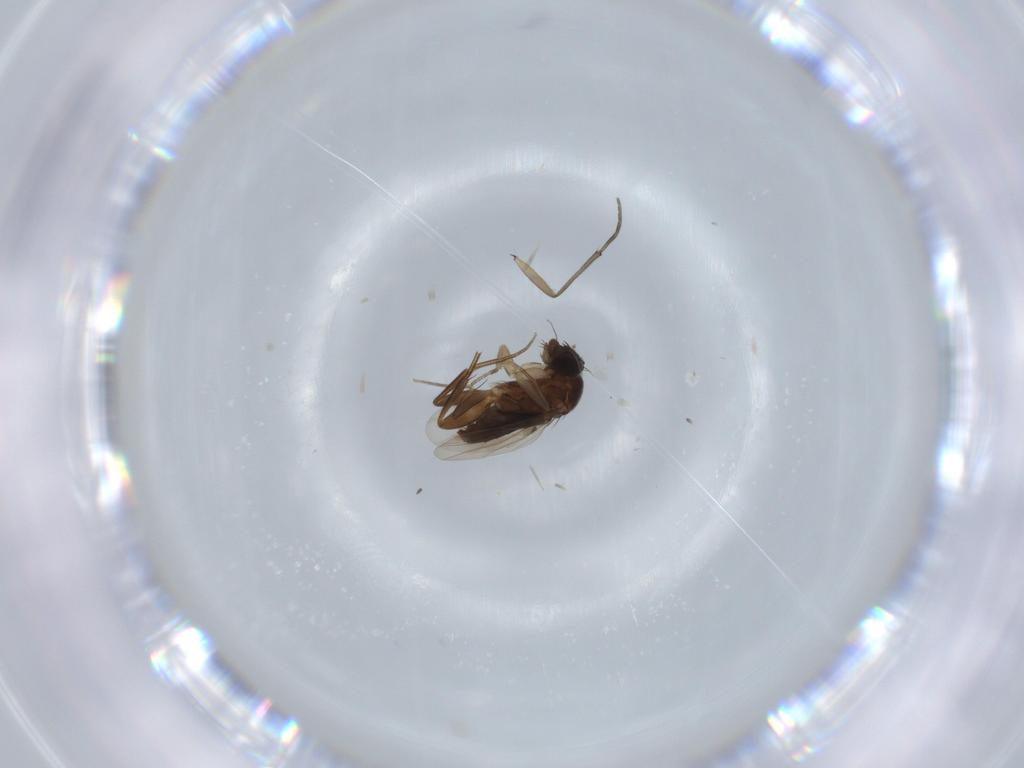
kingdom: Animalia
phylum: Arthropoda
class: Insecta
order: Diptera
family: Phoridae
